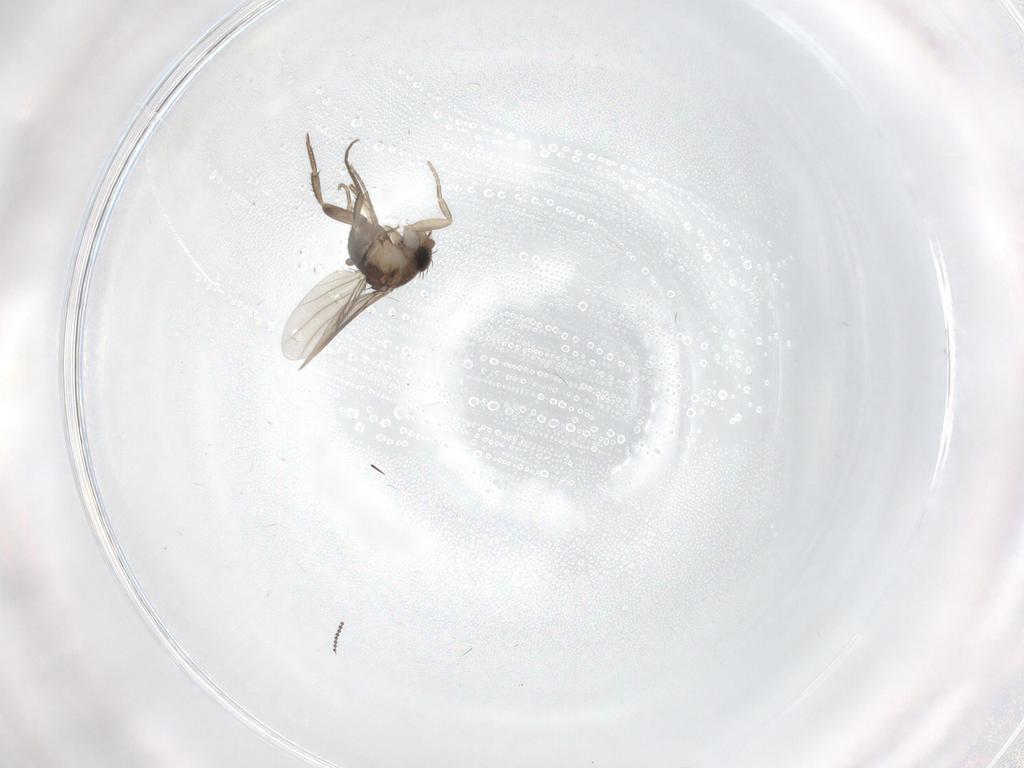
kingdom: Animalia
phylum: Arthropoda
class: Insecta
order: Diptera
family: Phoridae
